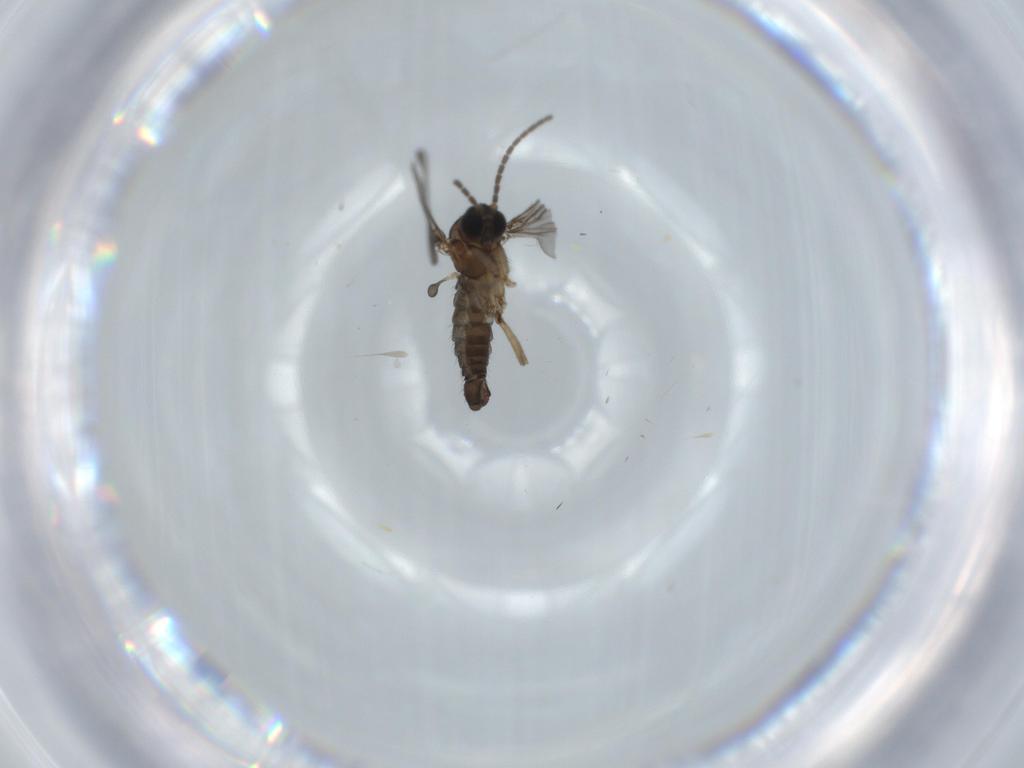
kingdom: Animalia
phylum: Arthropoda
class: Insecta
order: Diptera
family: Sciaridae
